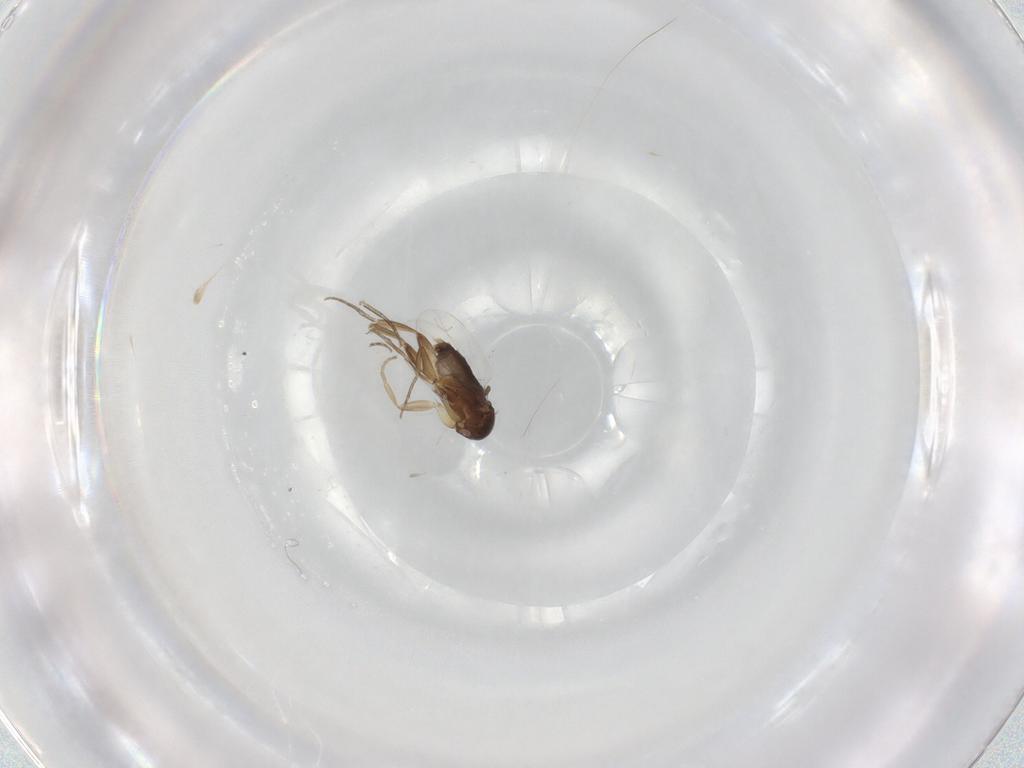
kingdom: Animalia
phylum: Arthropoda
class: Insecta
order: Diptera
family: Phoridae
